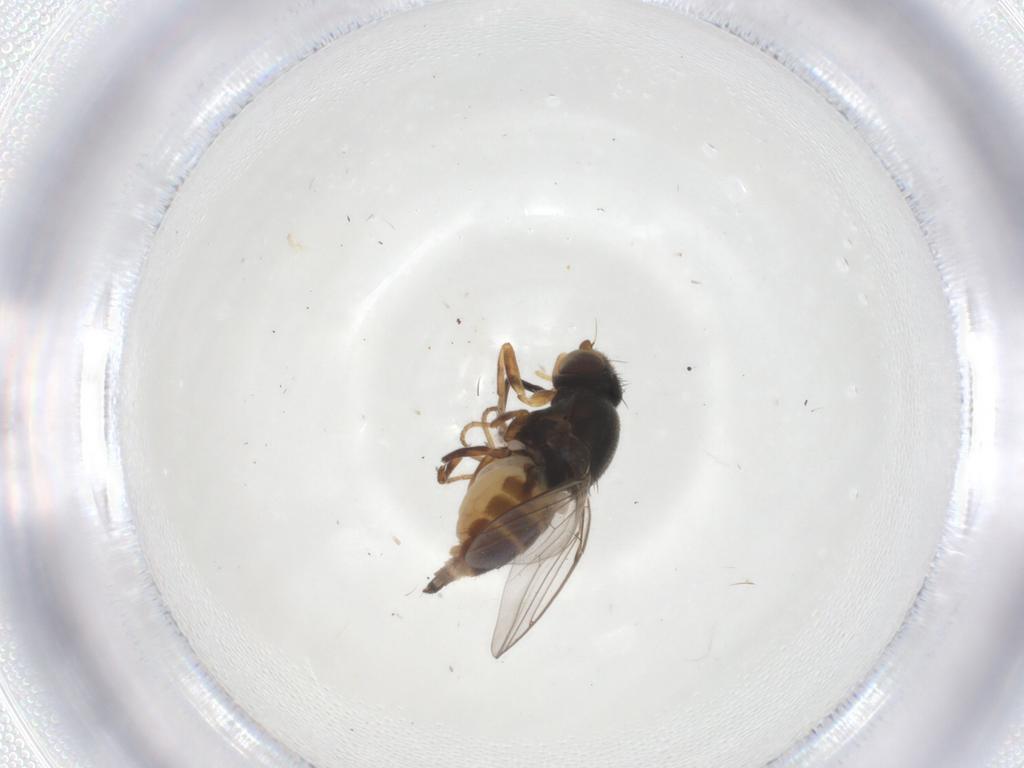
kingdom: Animalia
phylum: Arthropoda
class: Insecta
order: Diptera
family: Chloropidae
